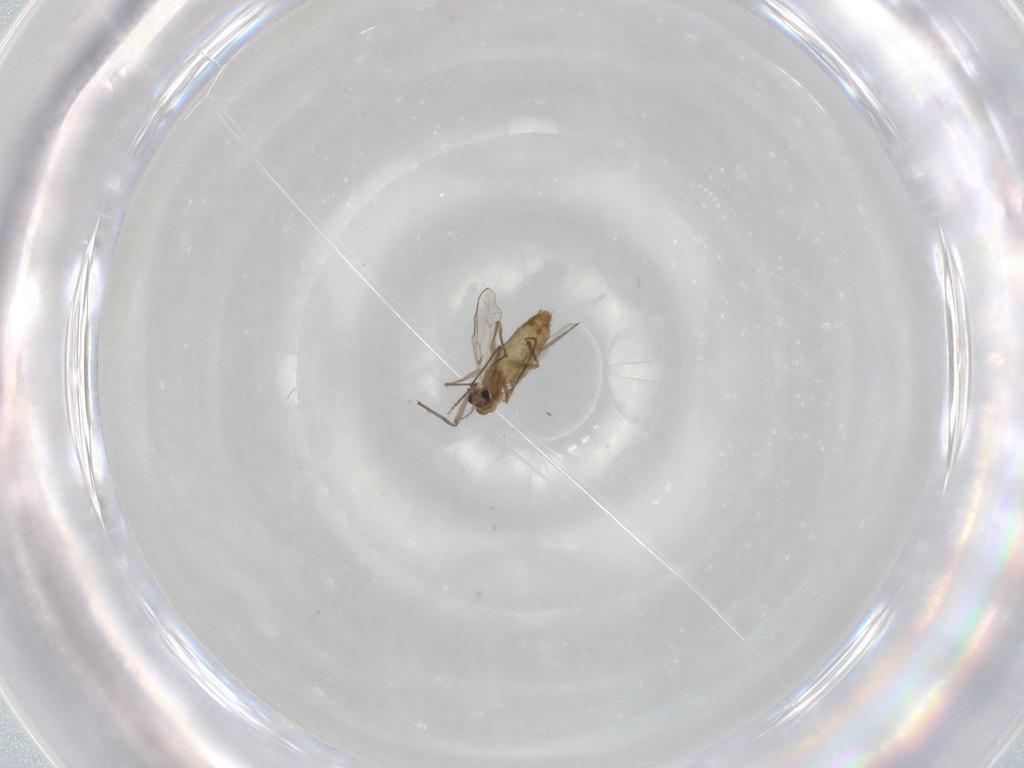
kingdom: Animalia
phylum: Arthropoda
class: Insecta
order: Diptera
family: Chironomidae
